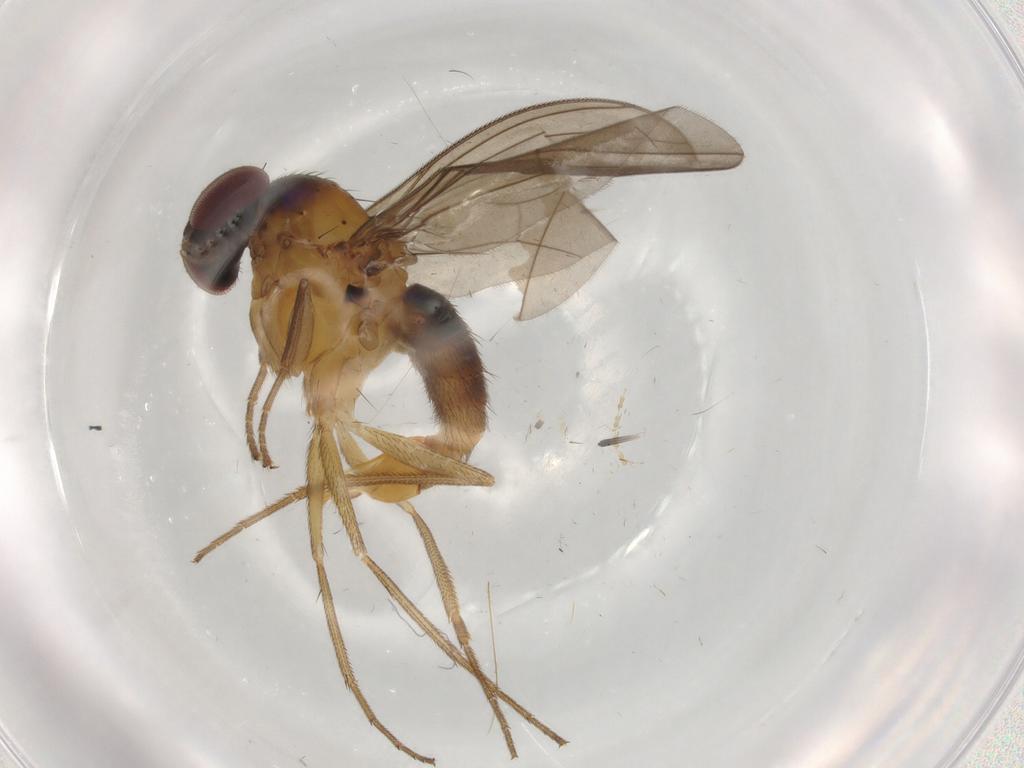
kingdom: Animalia
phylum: Arthropoda
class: Insecta
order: Diptera
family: Cecidomyiidae
